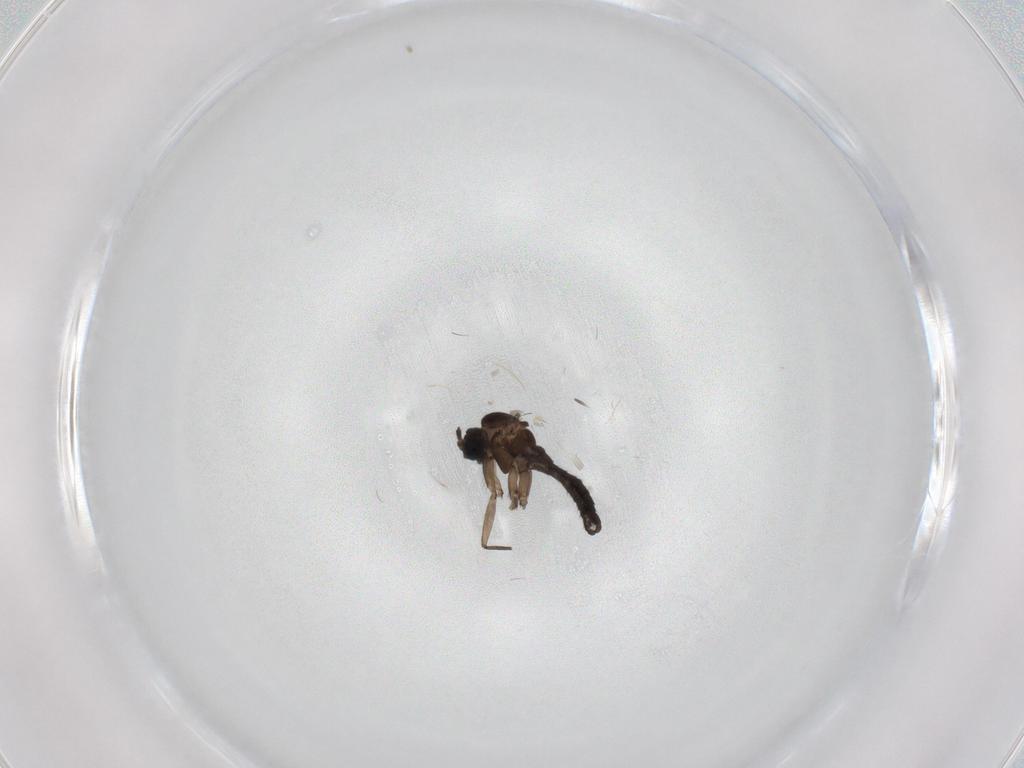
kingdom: Animalia
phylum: Arthropoda
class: Insecta
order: Diptera
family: Sciaridae
